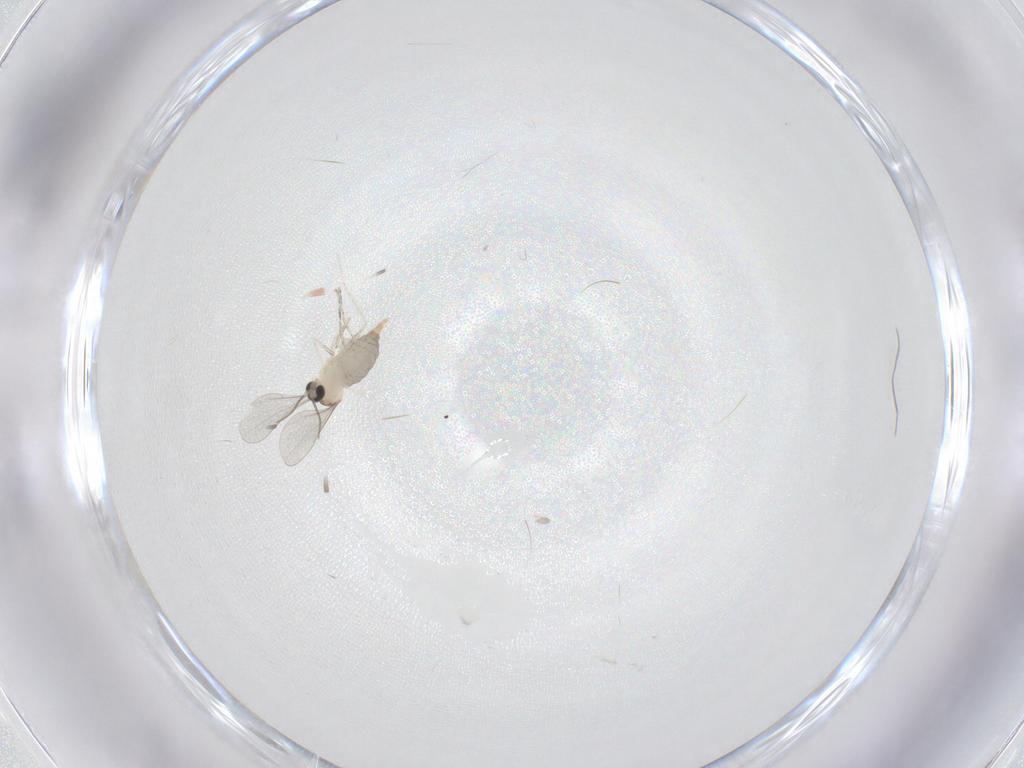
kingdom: Animalia
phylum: Arthropoda
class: Insecta
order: Diptera
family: Cecidomyiidae
